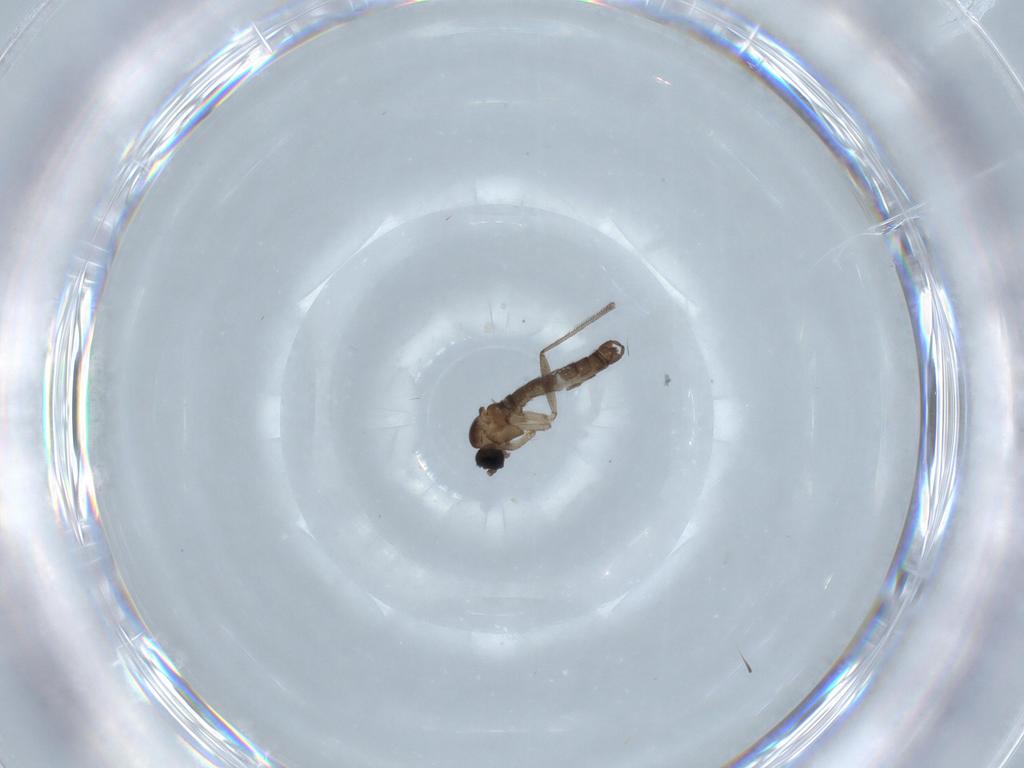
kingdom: Animalia
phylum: Arthropoda
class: Insecta
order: Diptera
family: Sciaridae
